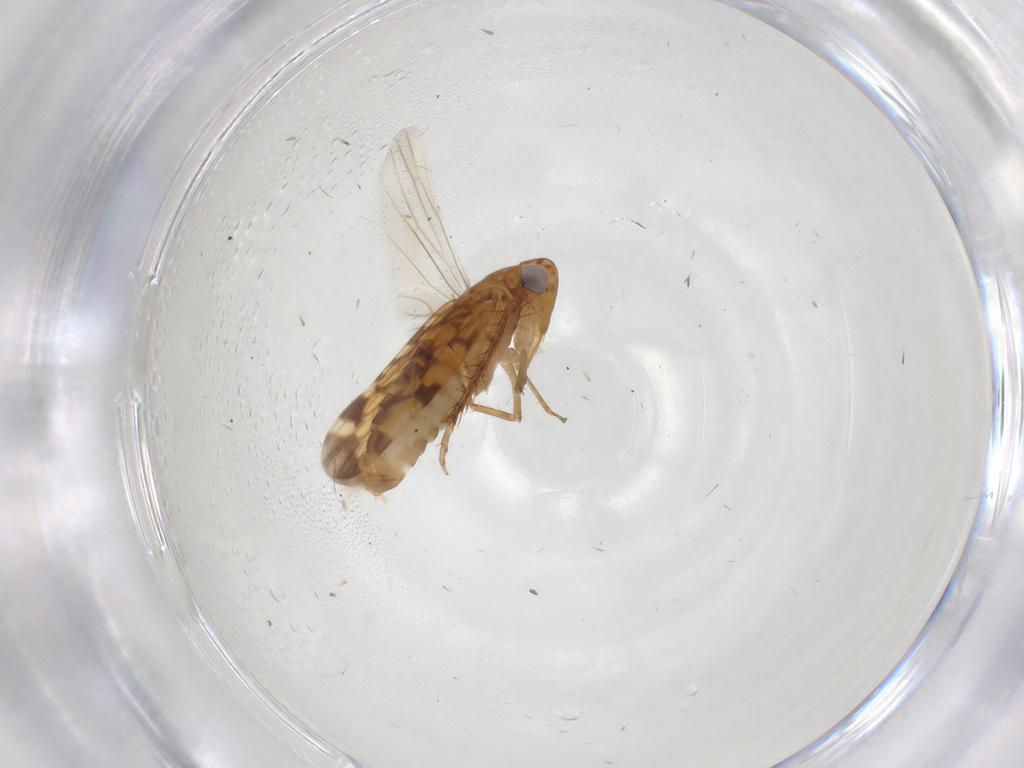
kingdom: Animalia
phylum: Arthropoda
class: Insecta
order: Hemiptera
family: Cicadellidae
